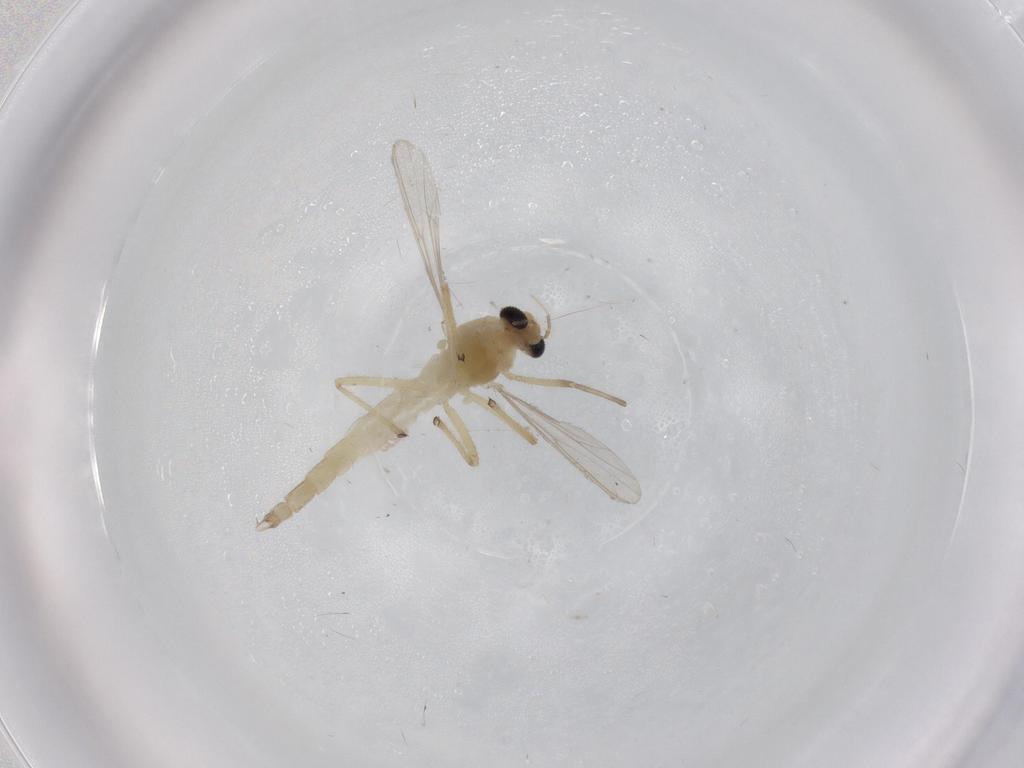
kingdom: Animalia
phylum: Arthropoda
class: Insecta
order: Diptera
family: Chironomidae
